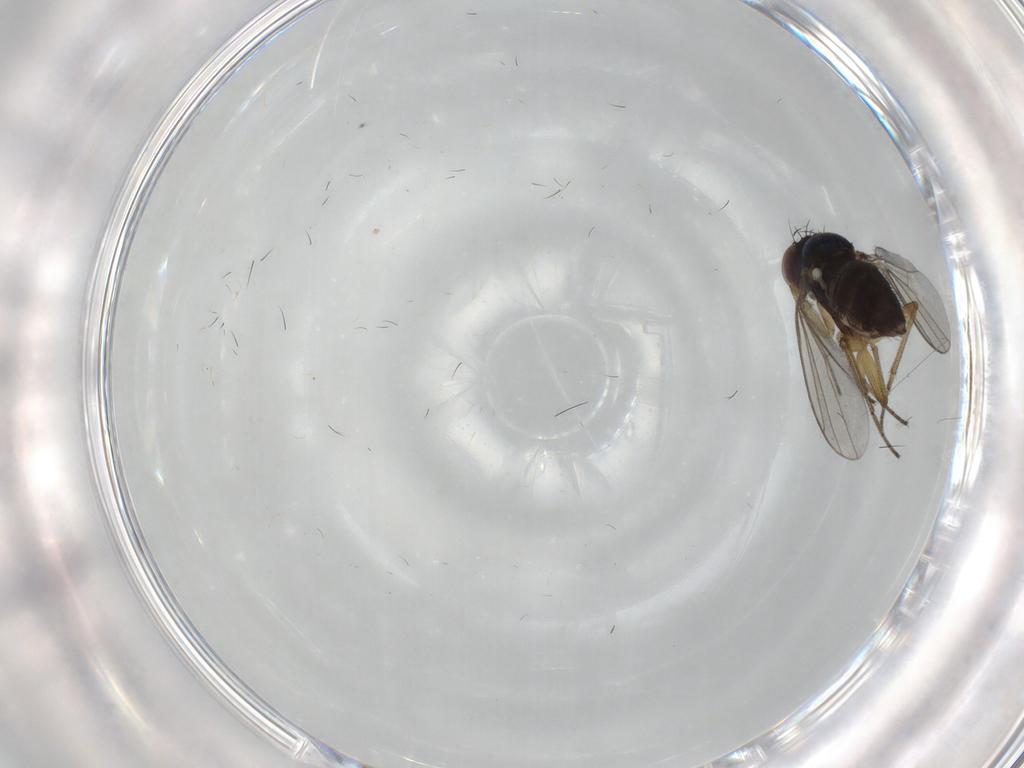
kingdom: Animalia
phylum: Arthropoda
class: Insecta
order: Diptera
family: Dolichopodidae
